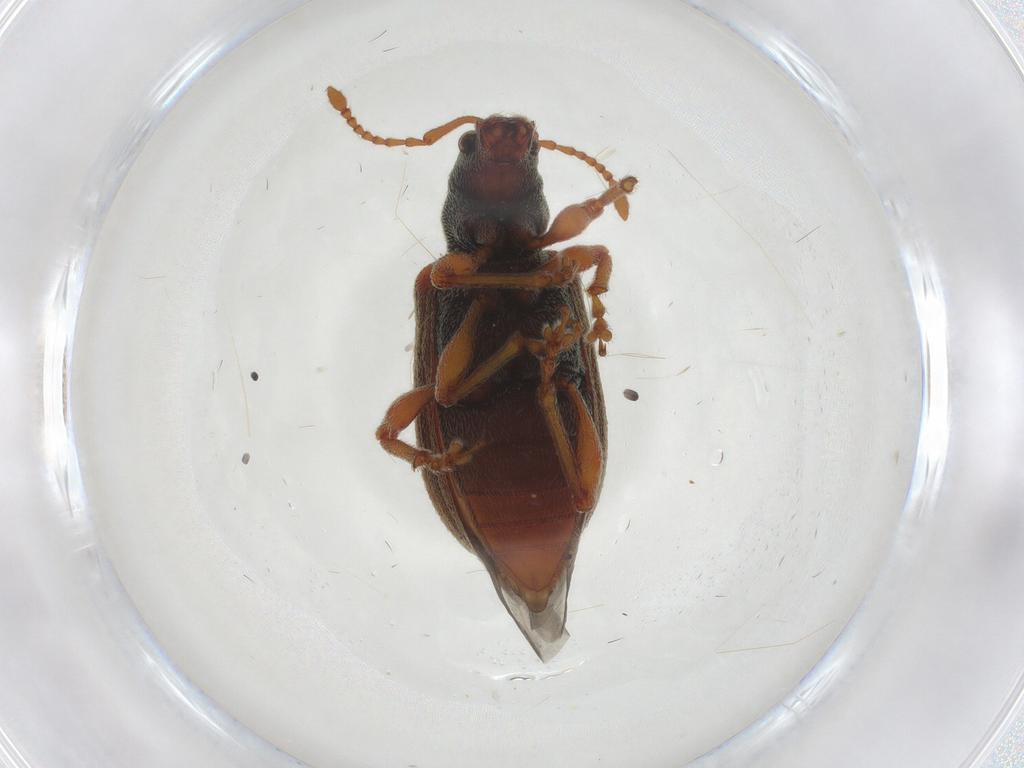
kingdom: Animalia
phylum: Arthropoda
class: Insecta
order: Coleoptera
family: Curculionidae
